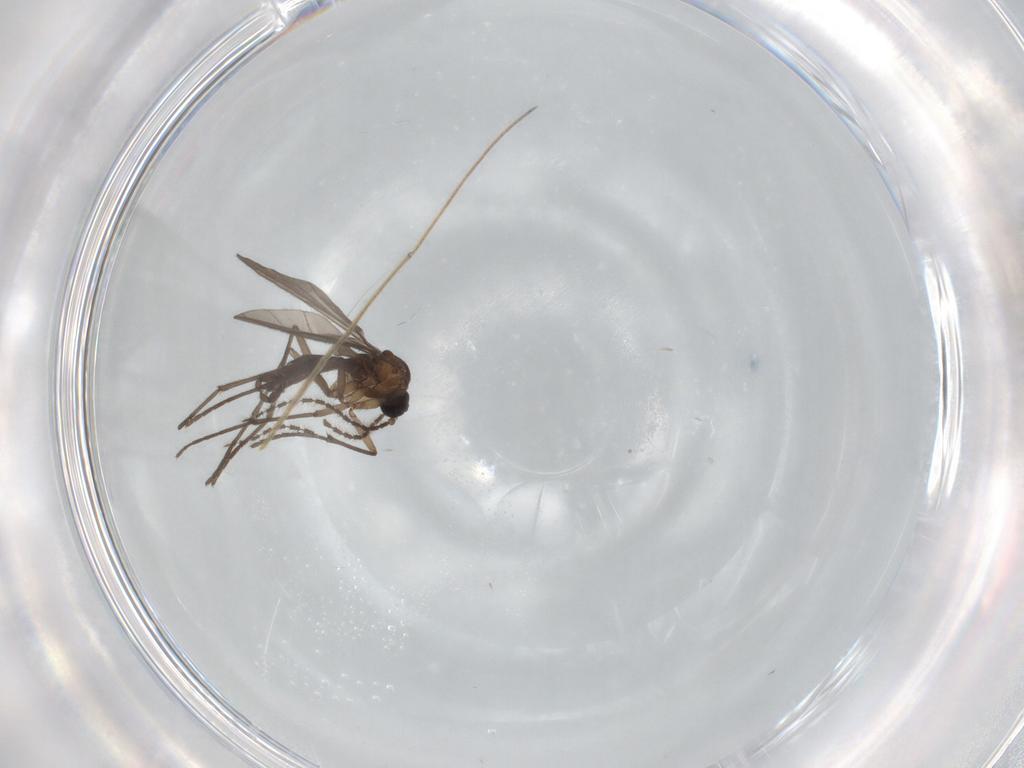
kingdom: Animalia
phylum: Arthropoda
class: Insecta
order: Diptera
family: Sciaridae
